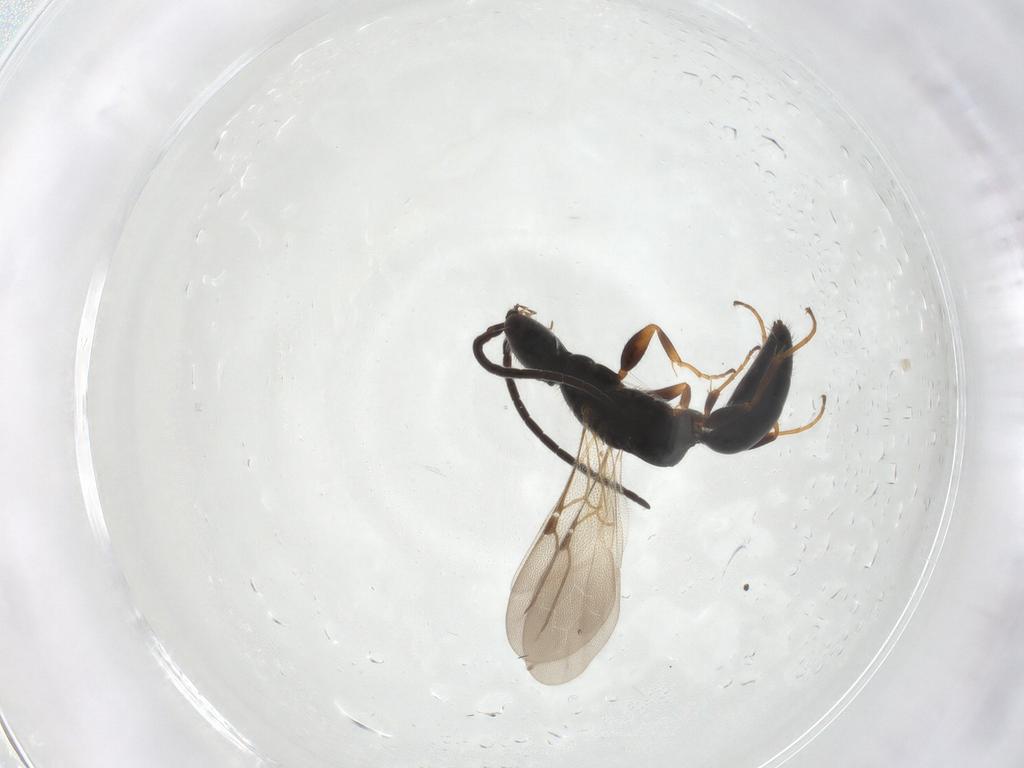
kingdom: Animalia
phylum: Arthropoda
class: Insecta
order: Hymenoptera
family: Bethylidae
